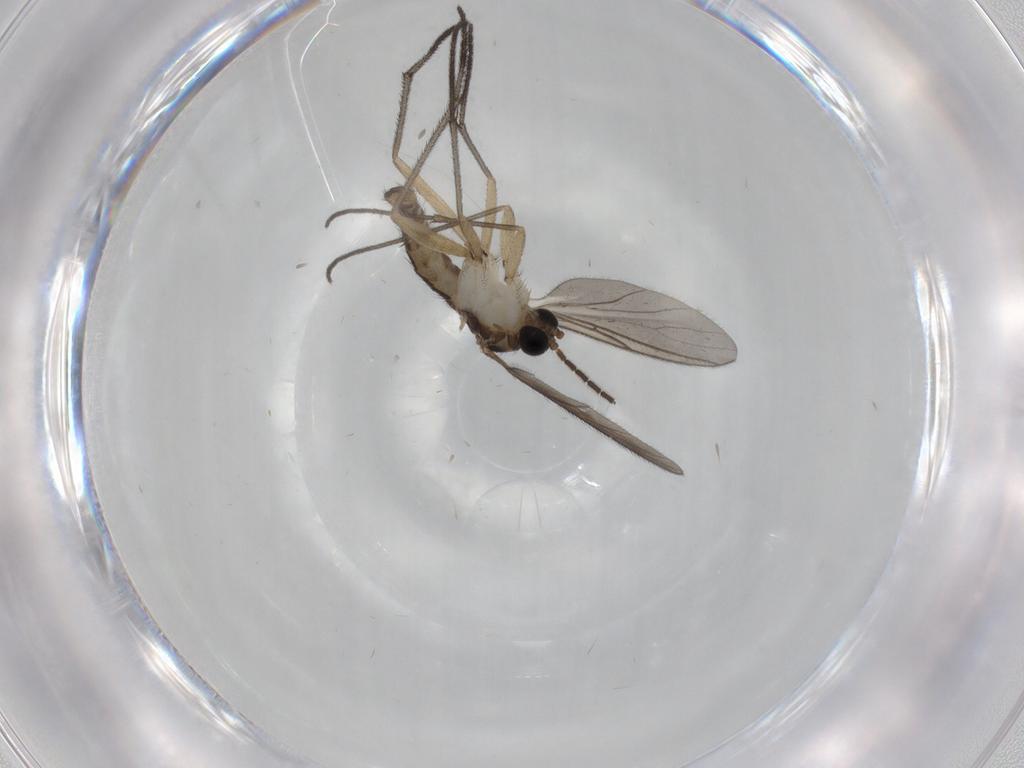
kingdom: Animalia
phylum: Arthropoda
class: Insecta
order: Diptera
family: Sciaridae
